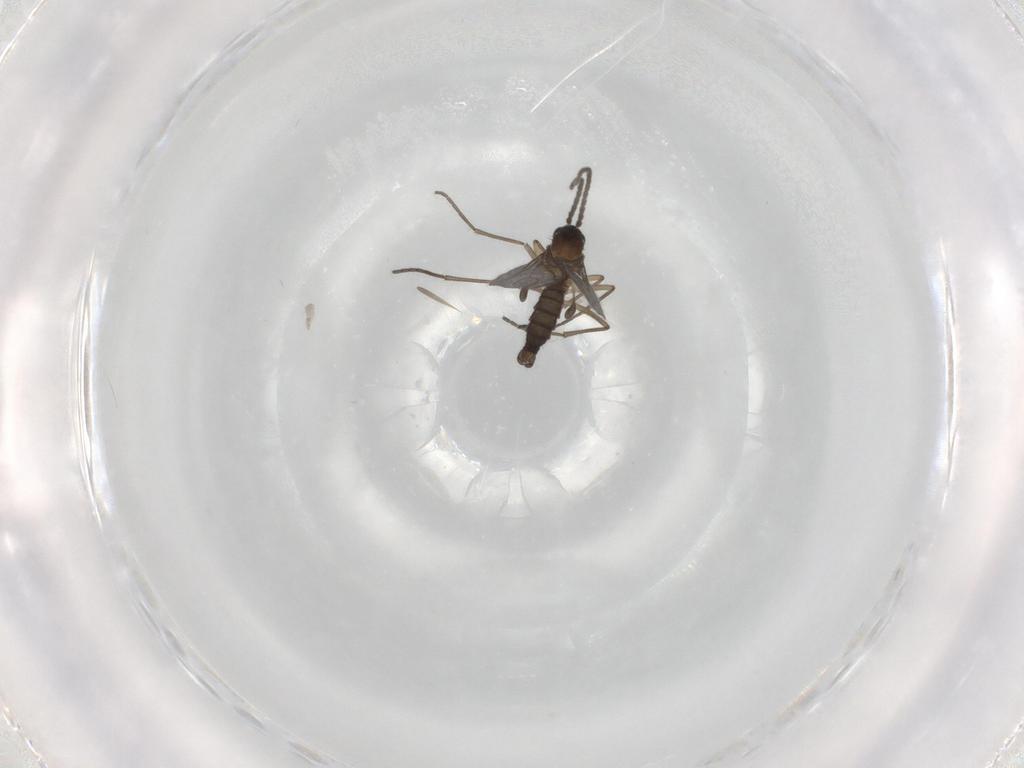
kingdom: Animalia
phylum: Arthropoda
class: Insecta
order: Diptera
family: Sciaridae
